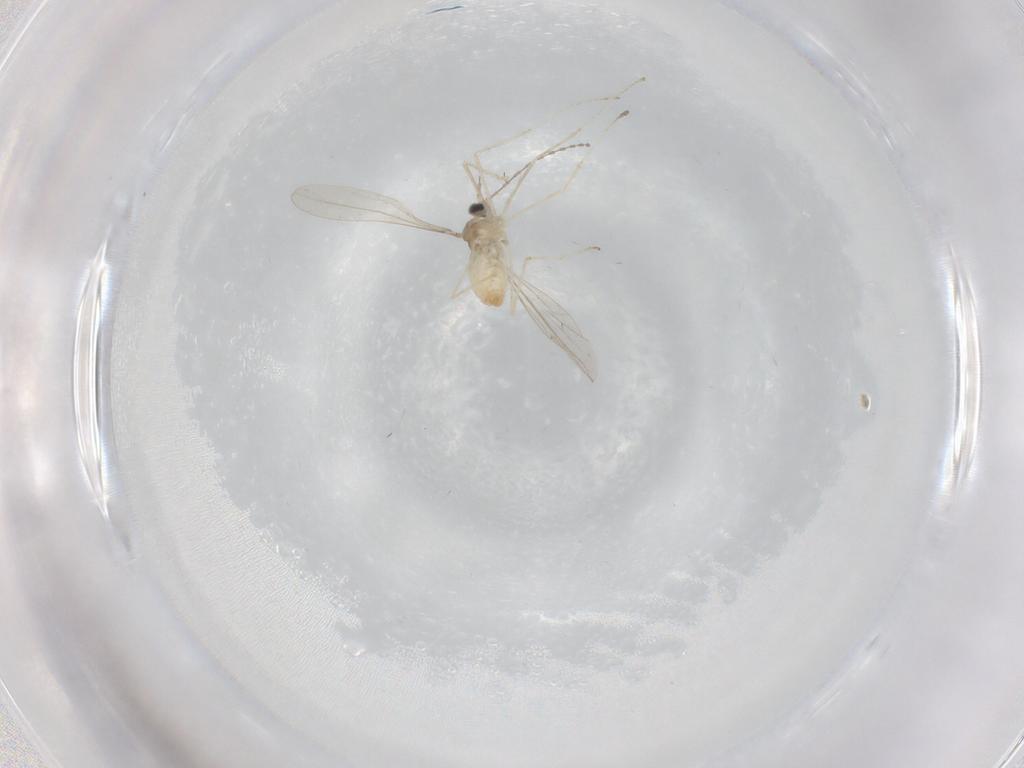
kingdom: Animalia
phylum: Arthropoda
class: Insecta
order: Diptera
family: Cecidomyiidae
